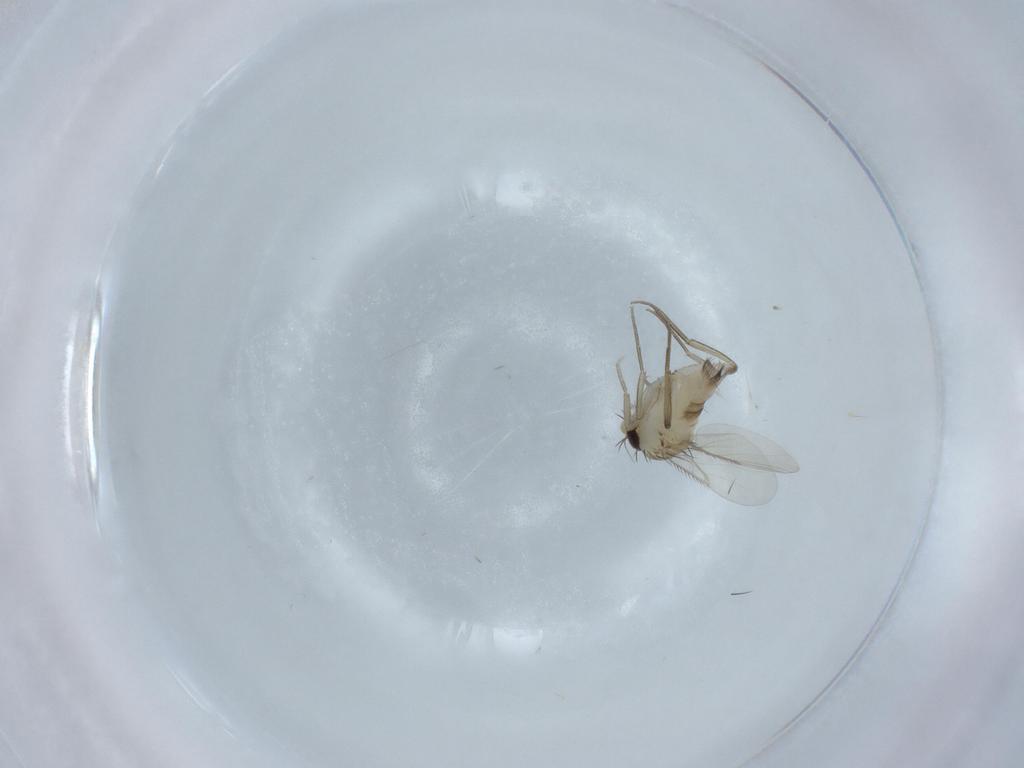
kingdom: Animalia
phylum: Arthropoda
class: Insecta
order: Diptera
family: Phoridae
